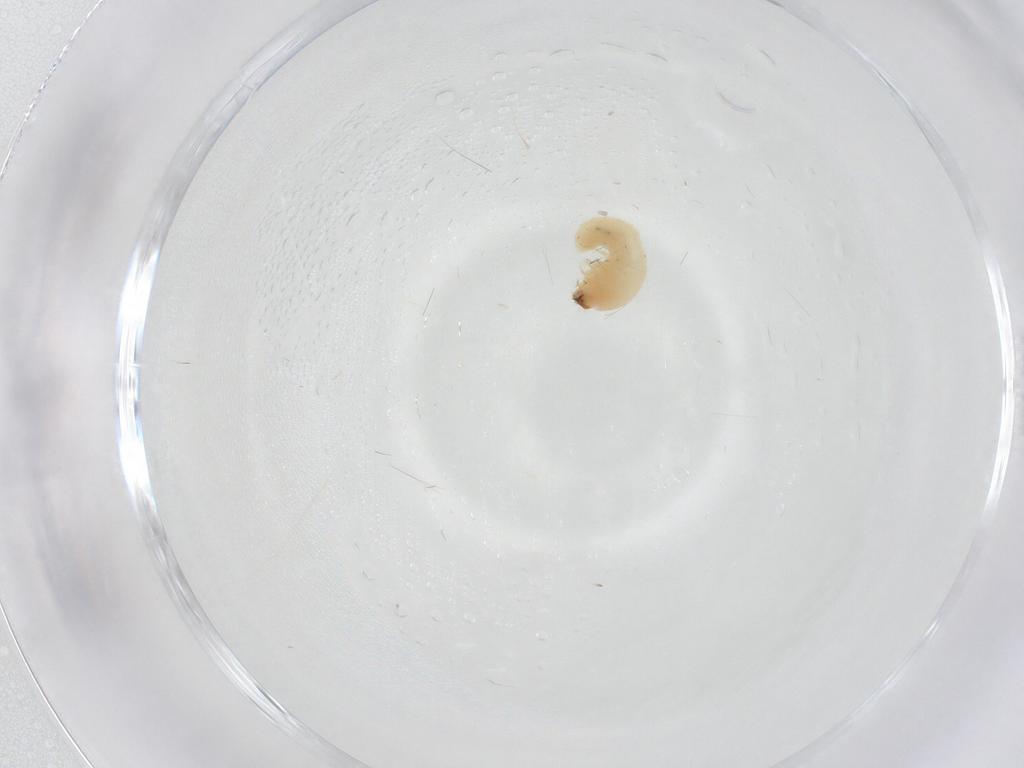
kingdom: Animalia
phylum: Arthropoda
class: Insecta
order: Coleoptera
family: Bostrichidae
